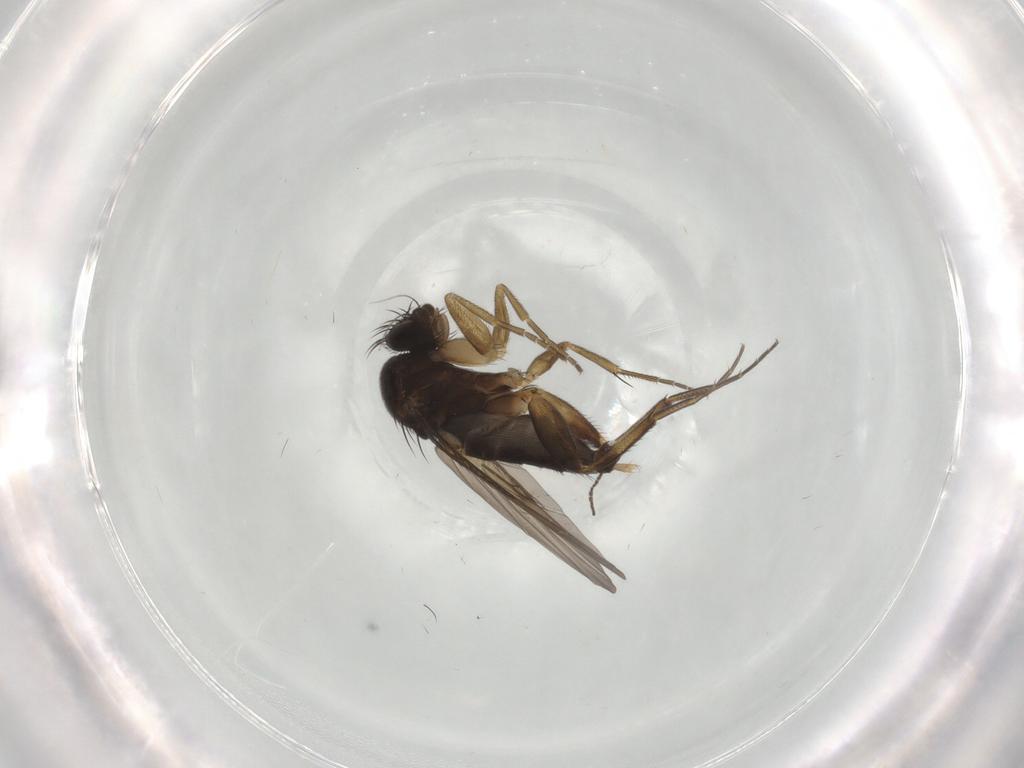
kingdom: Animalia
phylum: Arthropoda
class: Insecta
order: Diptera
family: Phoridae
